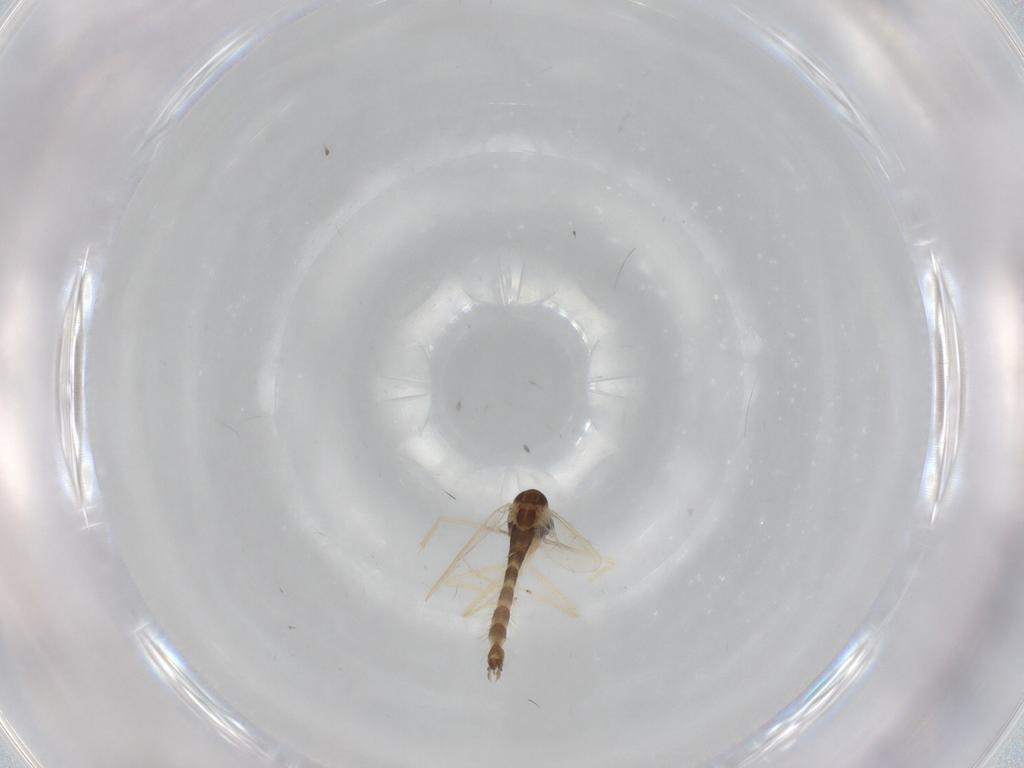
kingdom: Animalia
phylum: Arthropoda
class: Insecta
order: Diptera
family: Chironomidae
